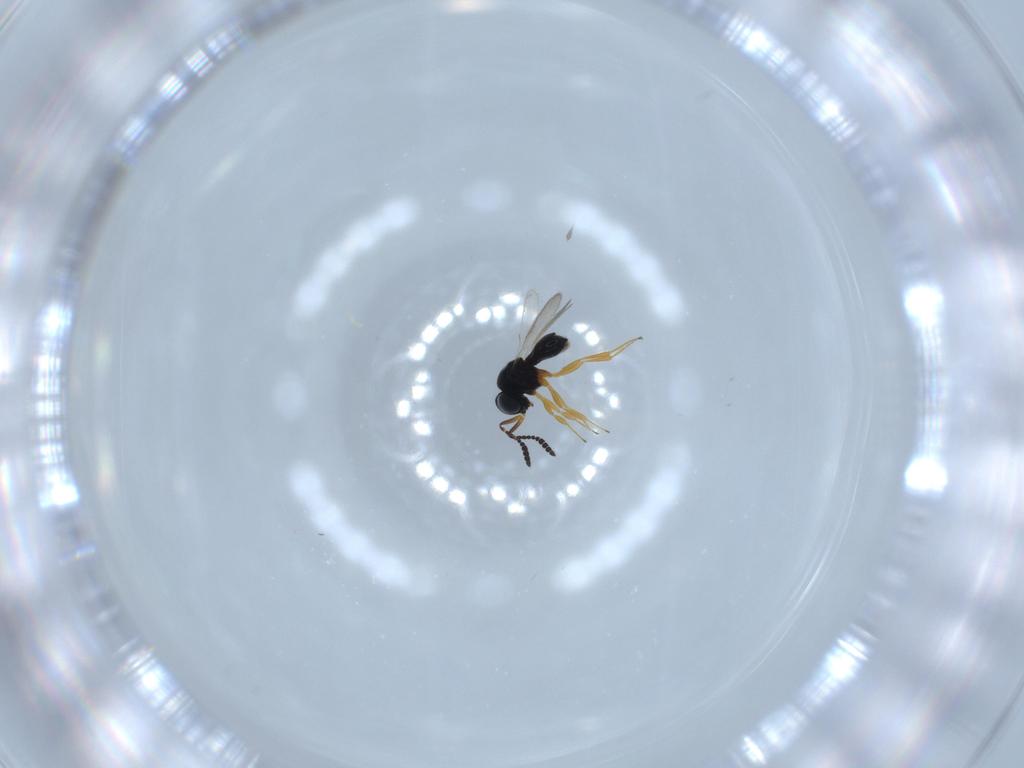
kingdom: Animalia
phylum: Arthropoda
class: Insecta
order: Hymenoptera
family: Scelionidae
